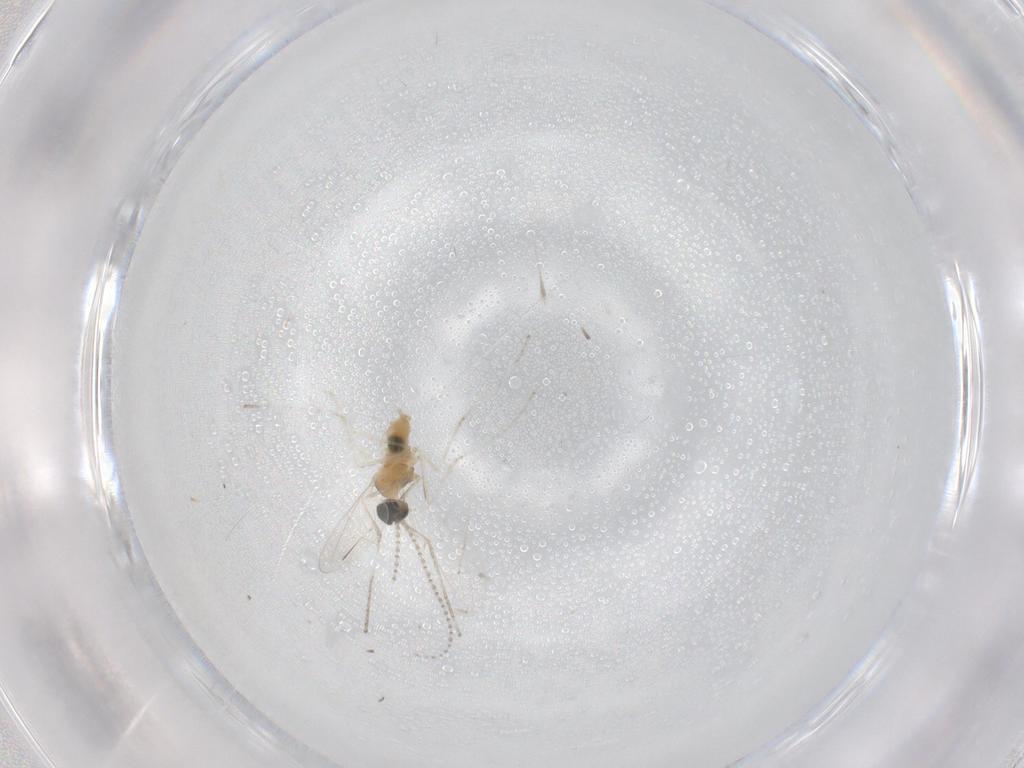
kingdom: Animalia
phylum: Arthropoda
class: Insecta
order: Diptera
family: Cecidomyiidae
